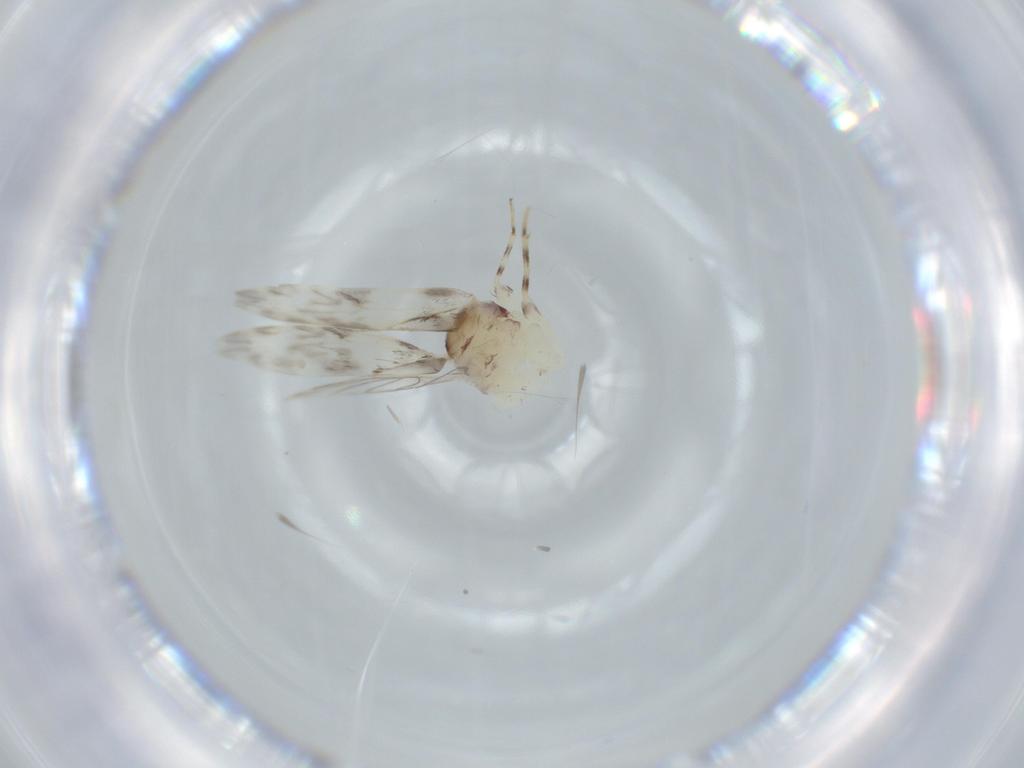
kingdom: Animalia
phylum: Arthropoda
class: Insecta
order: Psocodea
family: Lepidopsocidae
